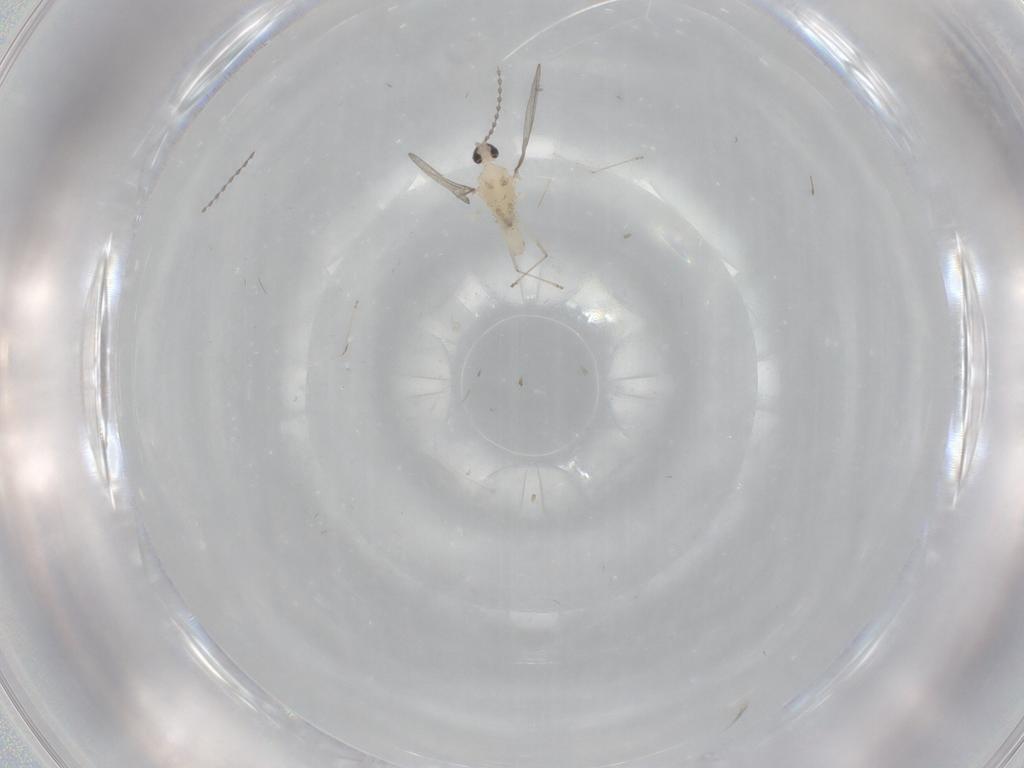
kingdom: Animalia
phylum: Arthropoda
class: Insecta
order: Diptera
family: Cecidomyiidae
